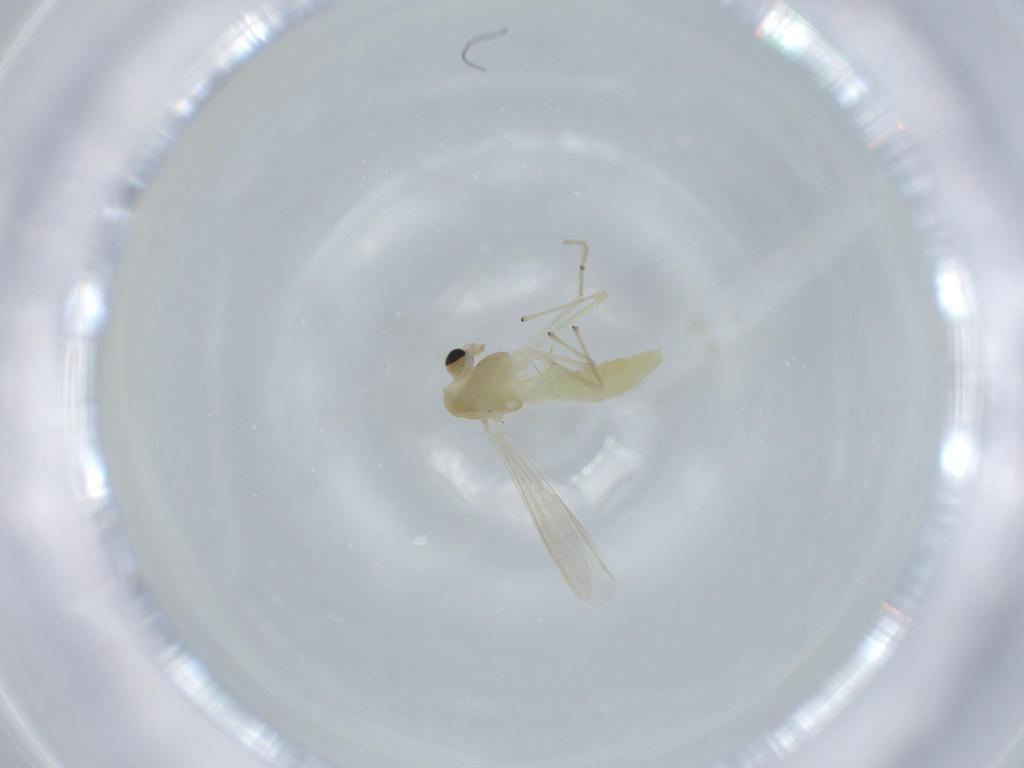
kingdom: Animalia
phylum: Arthropoda
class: Insecta
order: Diptera
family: Chironomidae
